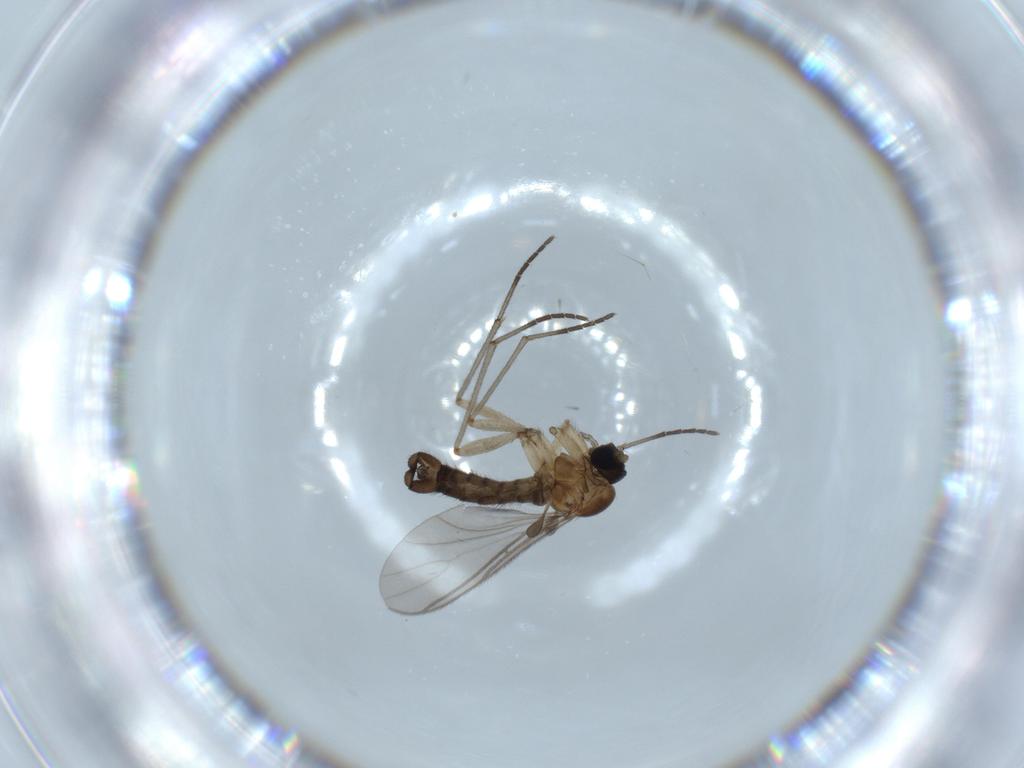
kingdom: Animalia
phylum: Arthropoda
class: Insecta
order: Diptera
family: Sciaridae
